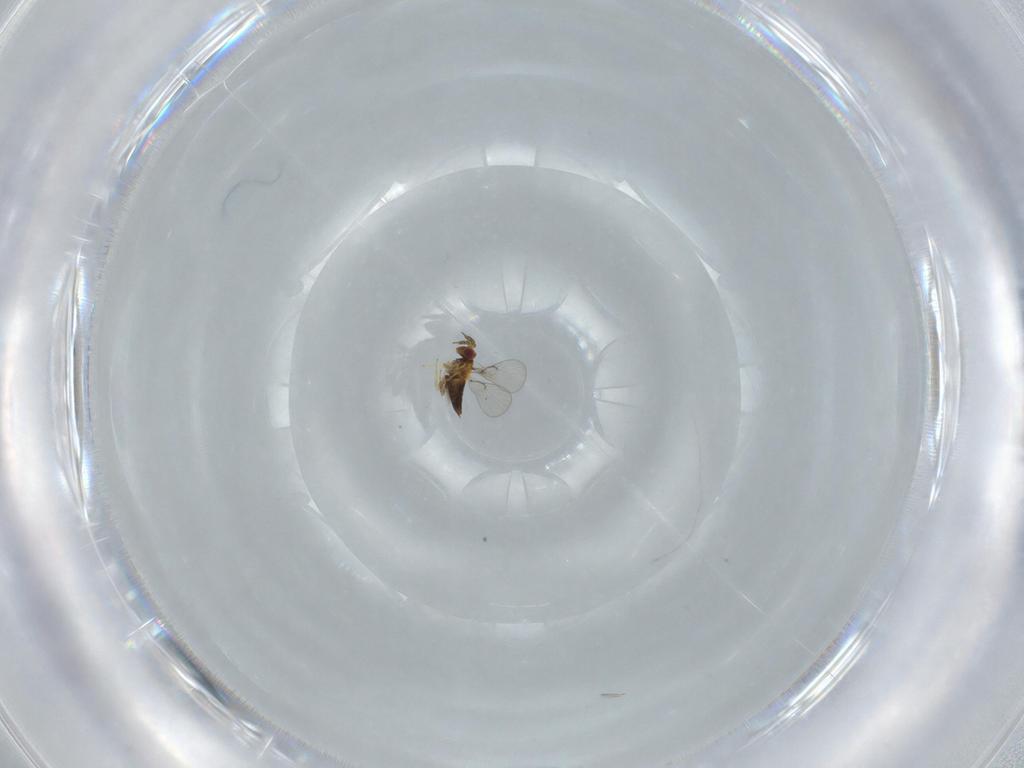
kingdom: Animalia
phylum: Arthropoda
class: Insecta
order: Hymenoptera
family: Trichogrammatidae
